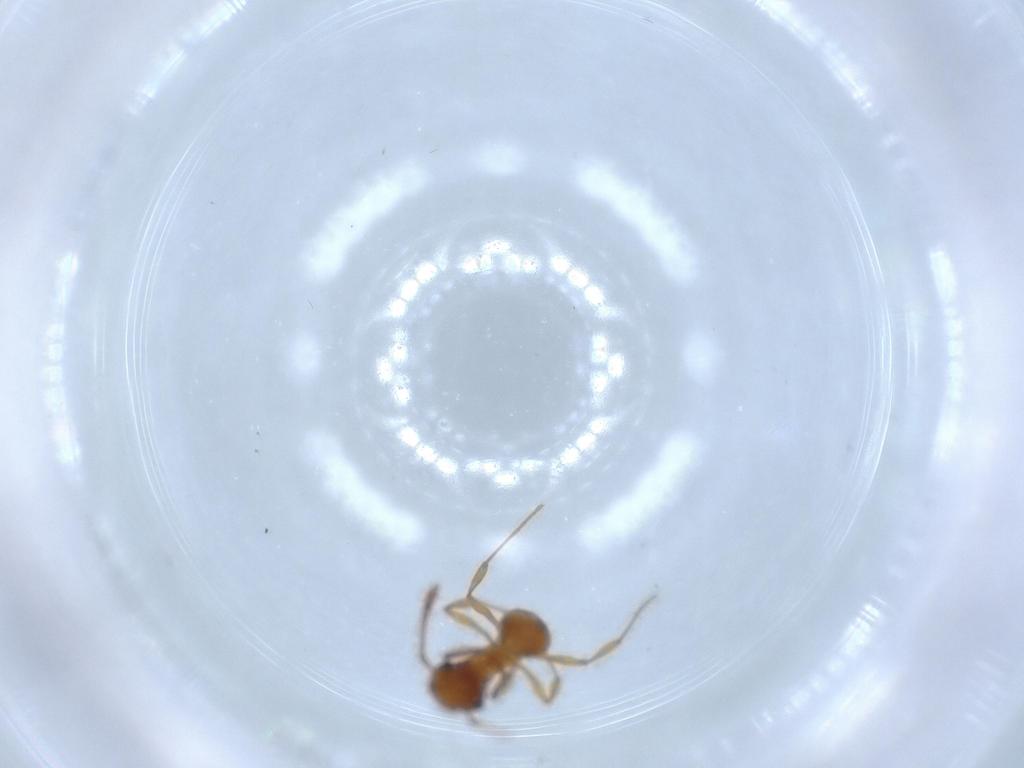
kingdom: Animalia
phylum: Arthropoda
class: Insecta
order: Hymenoptera
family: Formicidae
